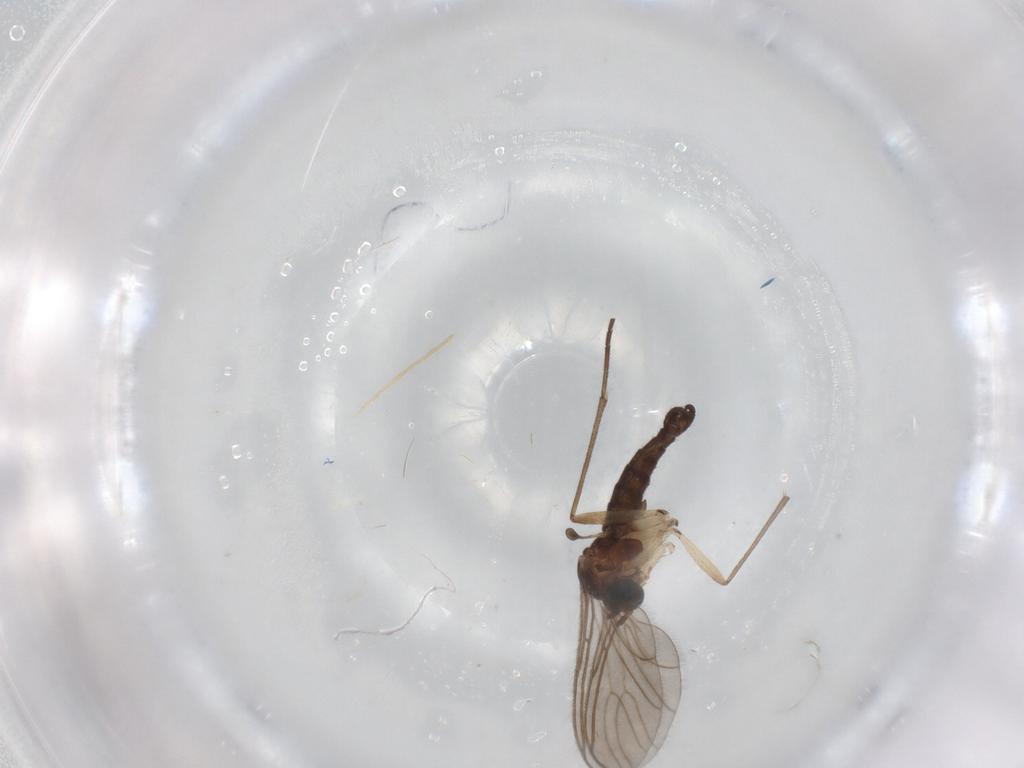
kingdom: Animalia
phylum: Arthropoda
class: Insecta
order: Diptera
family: Sciaridae
